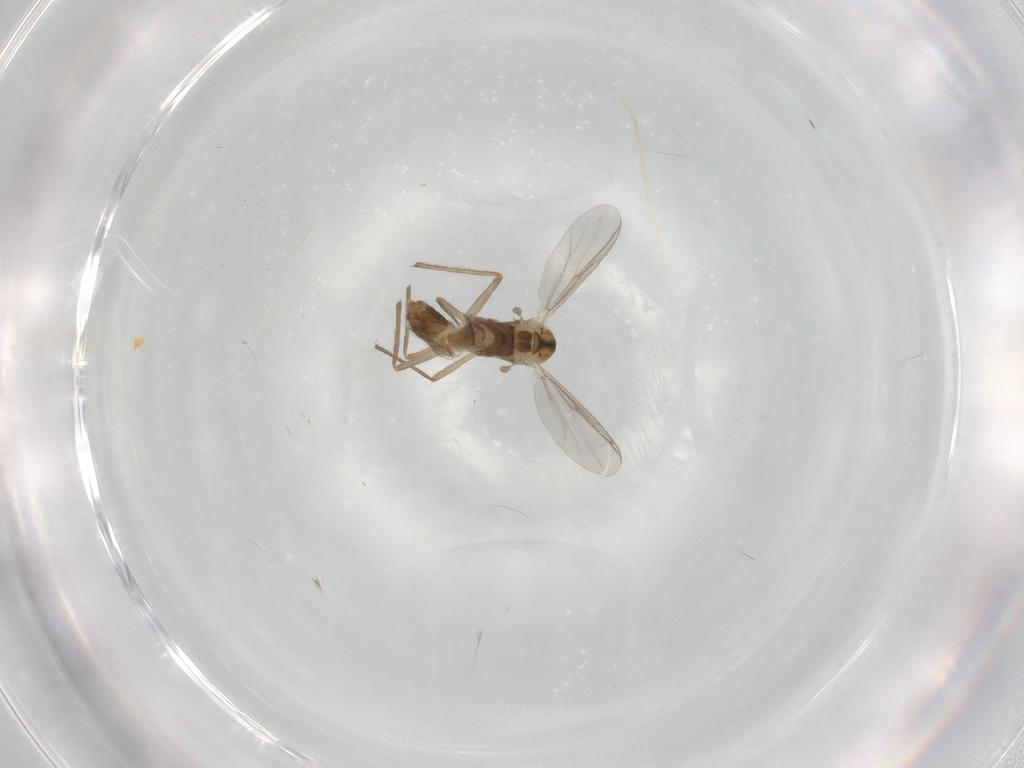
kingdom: Animalia
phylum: Arthropoda
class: Insecta
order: Diptera
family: Chironomidae
